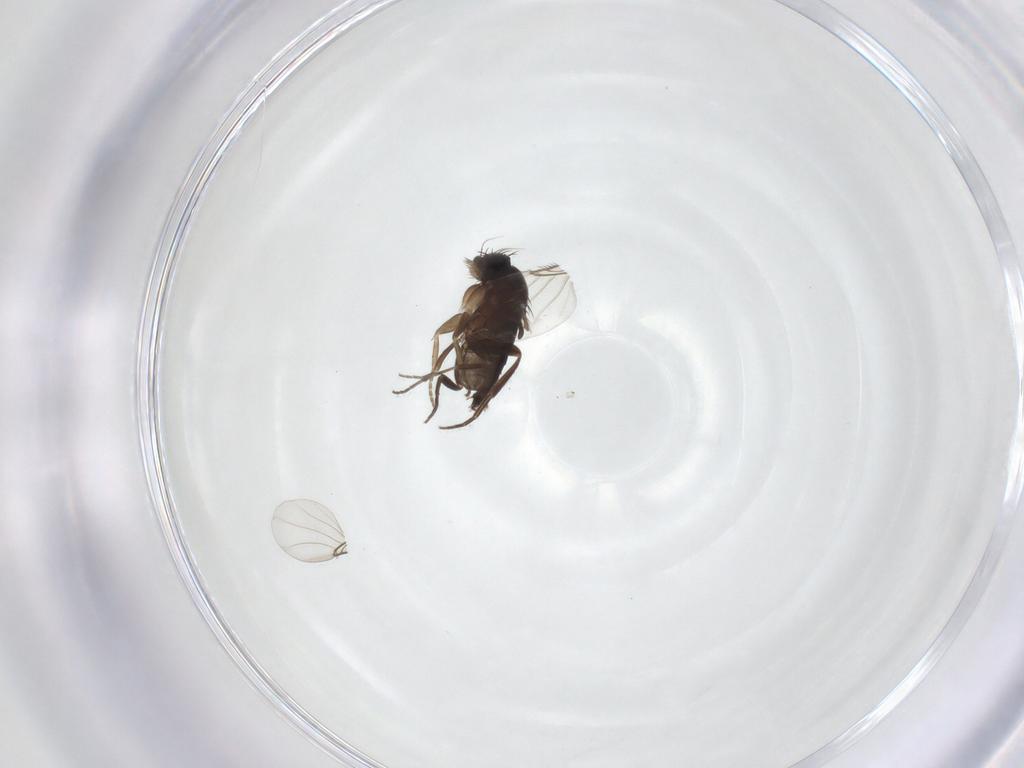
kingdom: Animalia
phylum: Arthropoda
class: Insecta
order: Diptera
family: Phoridae
